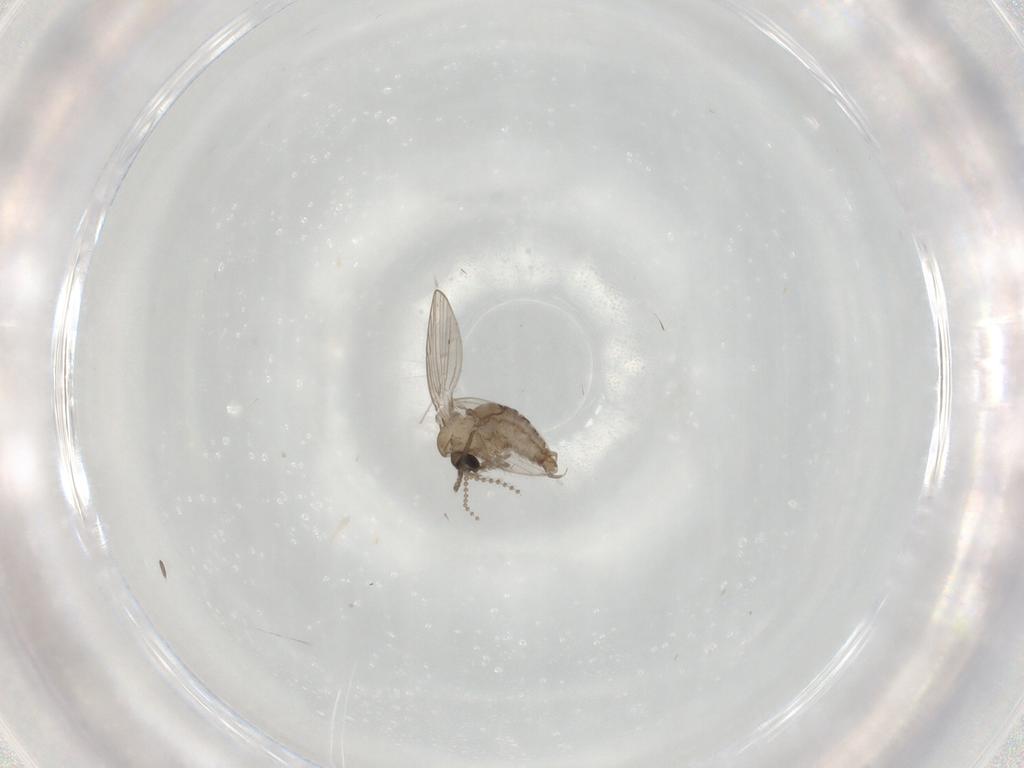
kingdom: Animalia
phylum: Arthropoda
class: Insecta
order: Diptera
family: Psychodidae
